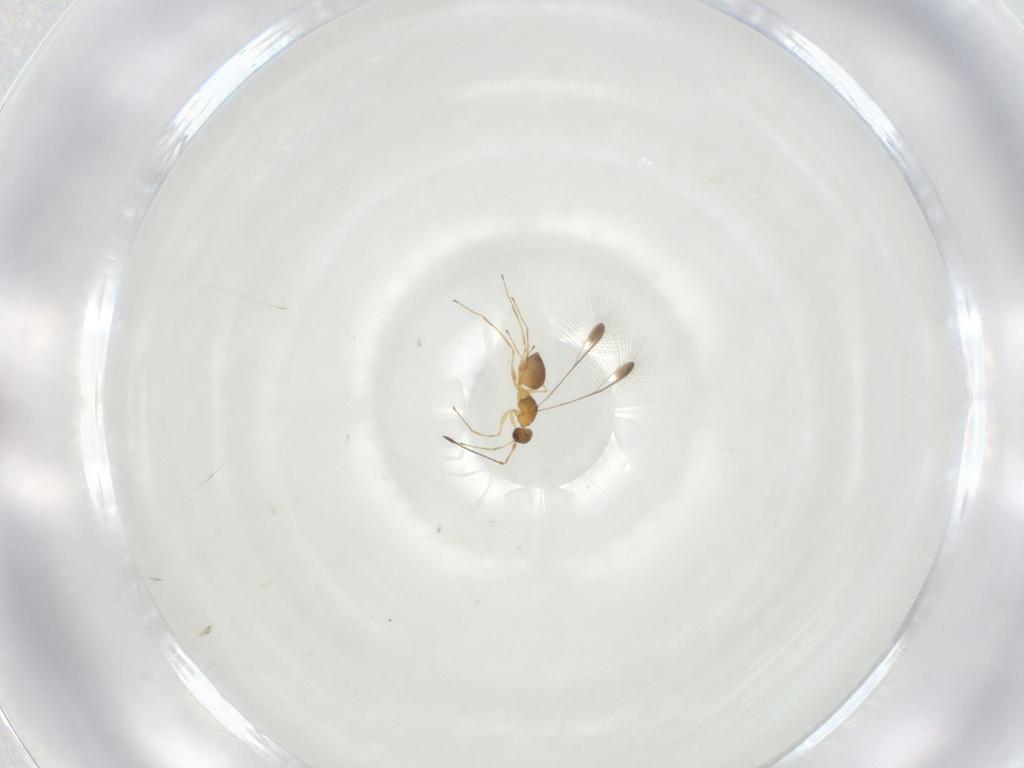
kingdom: Animalia
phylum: Arthropoda
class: Insecta
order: Hymenoptera
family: Mymaridae
